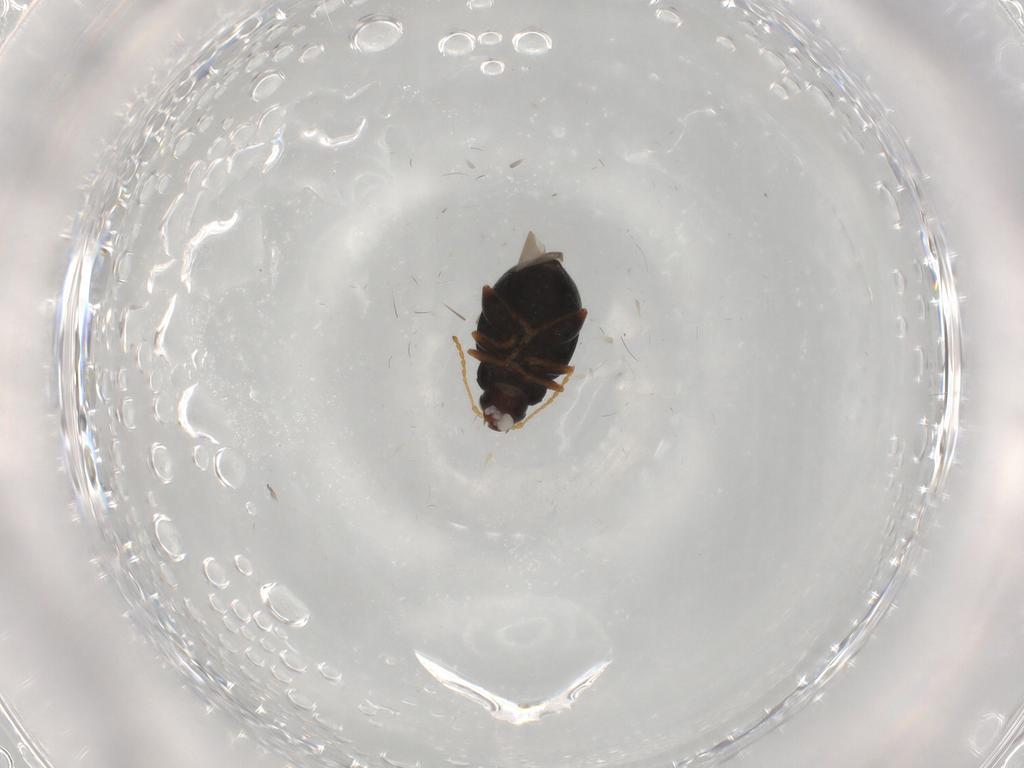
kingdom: Animalia
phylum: Arthropoda
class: Insecta
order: Coleoptera
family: Chrysomelidae
